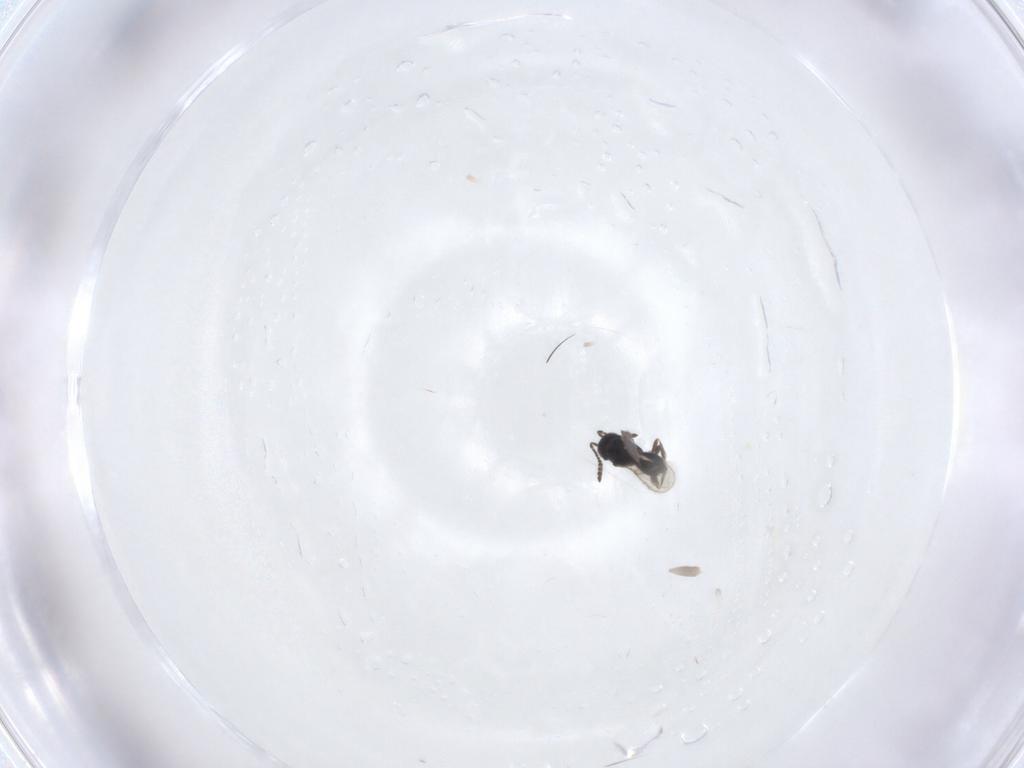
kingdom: Animalia
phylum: Arthropoda
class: Insecta
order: Hymenoptera
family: Scelionidae
